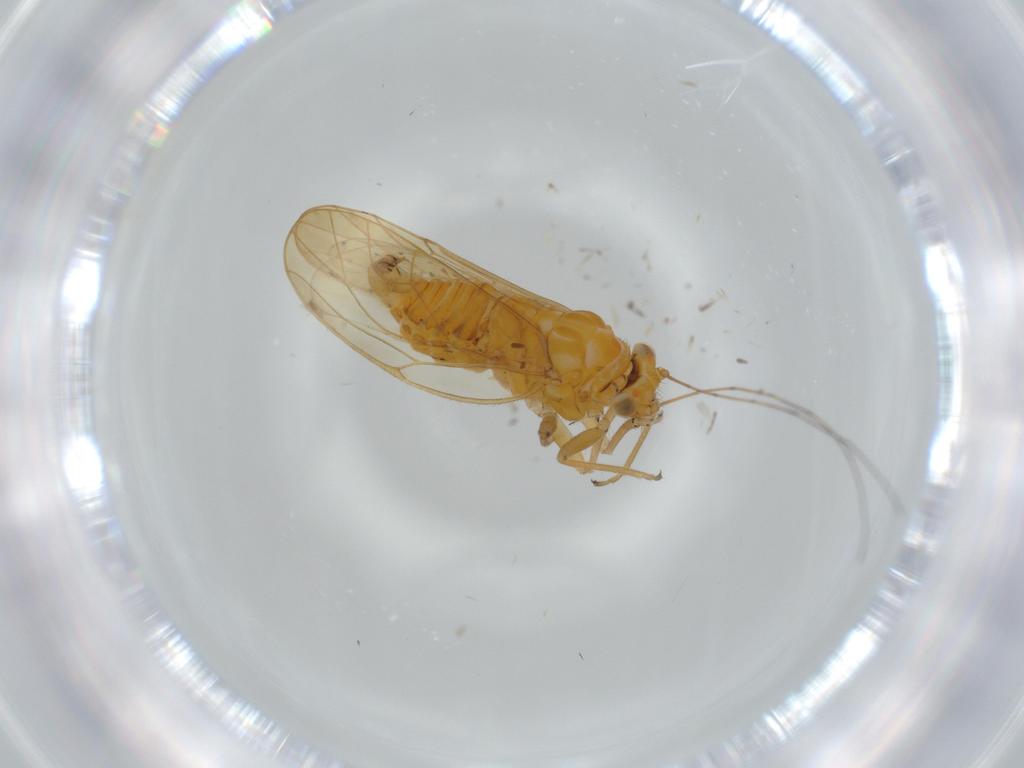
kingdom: Animalia
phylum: Arthropoda
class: Insecta
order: Hemiptera
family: Psyllidae
